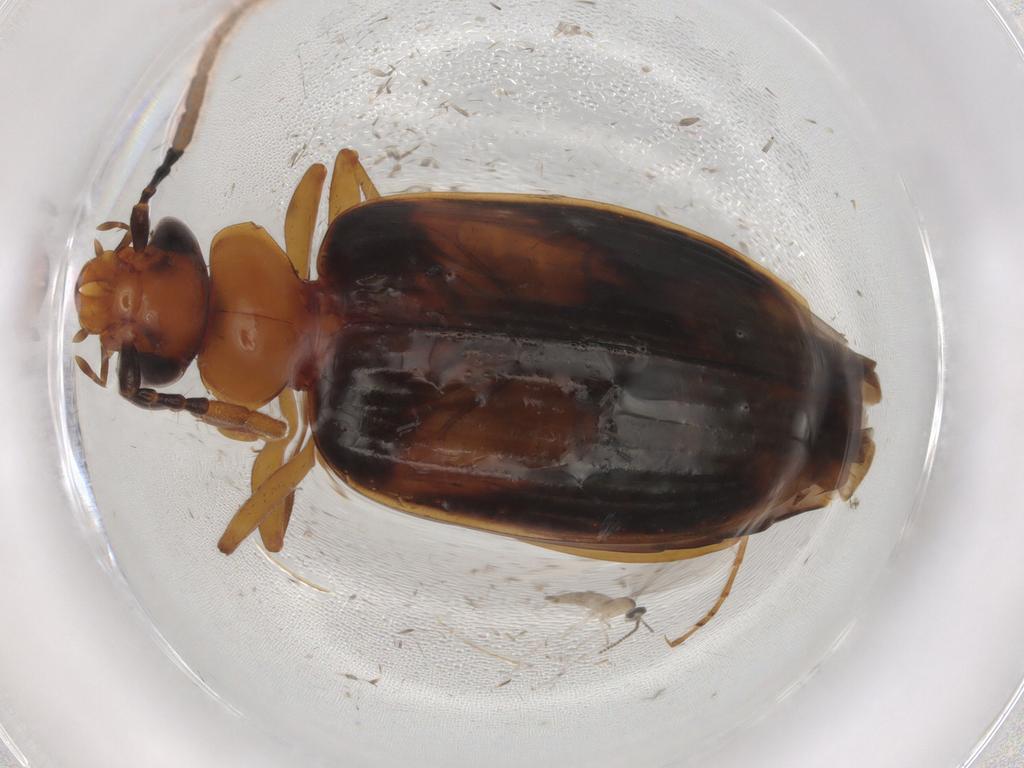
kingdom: Animalia
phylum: Arthropoda
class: Insecta
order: Coleoptera
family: Carabidae
